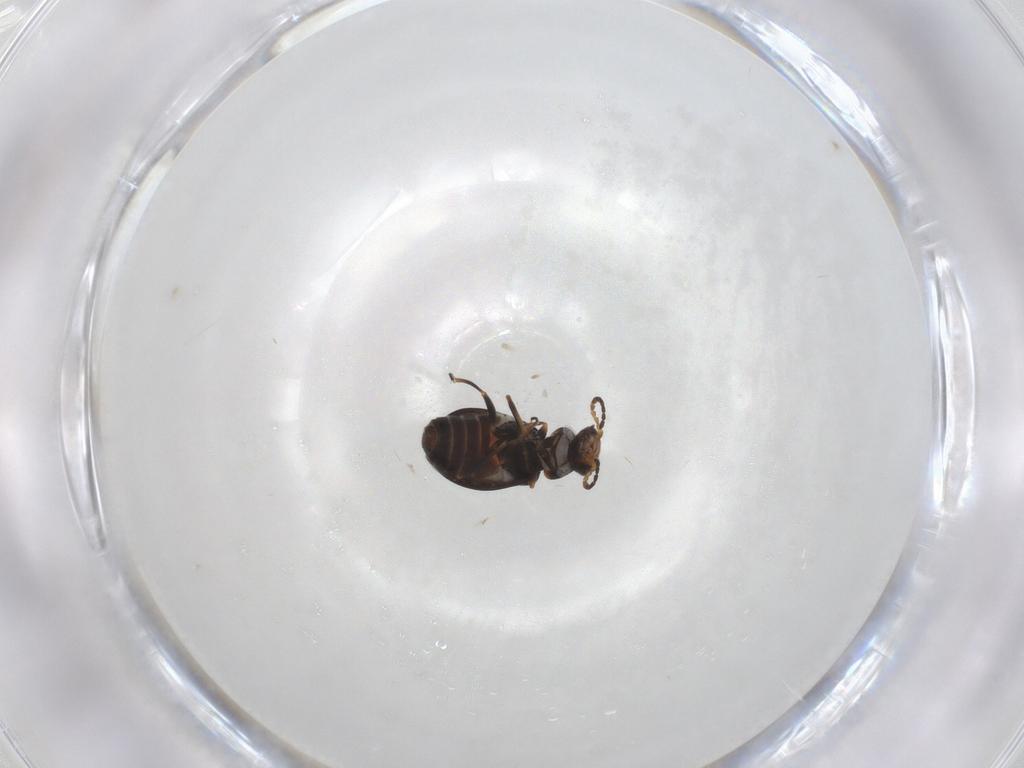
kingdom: Animalia
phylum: Arthropoda
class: Insecta
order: Coleoptera
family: Melyridae
